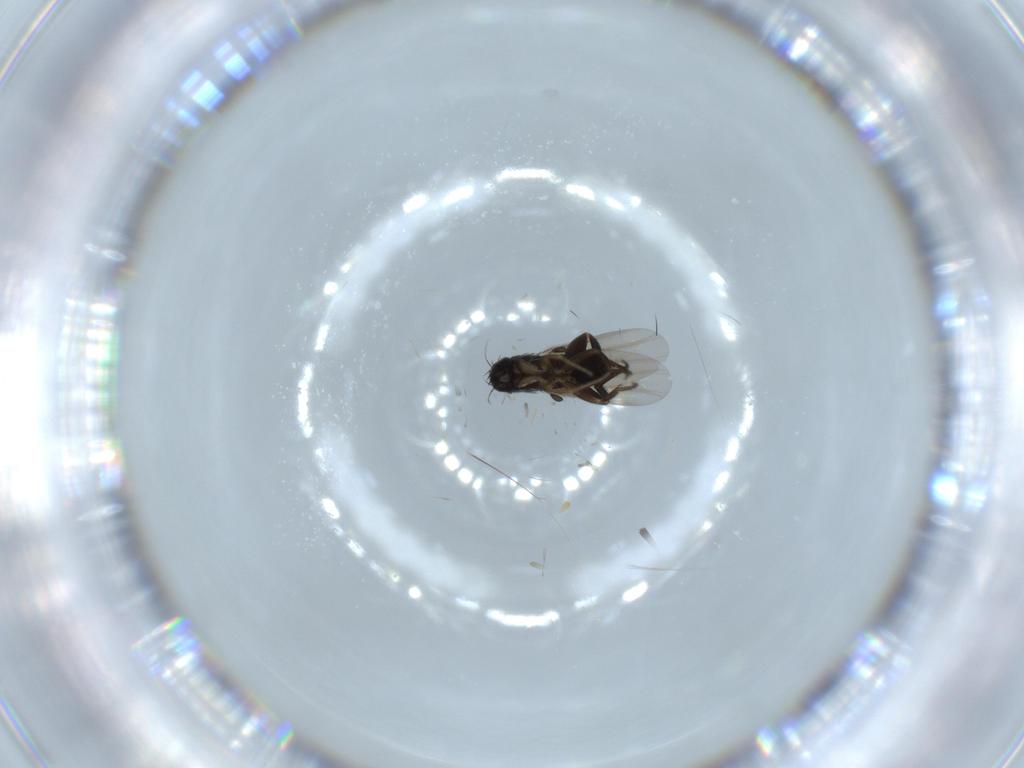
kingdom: Animalia
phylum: Arthropoda
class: Insecta
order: Diptera
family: Phoridae
